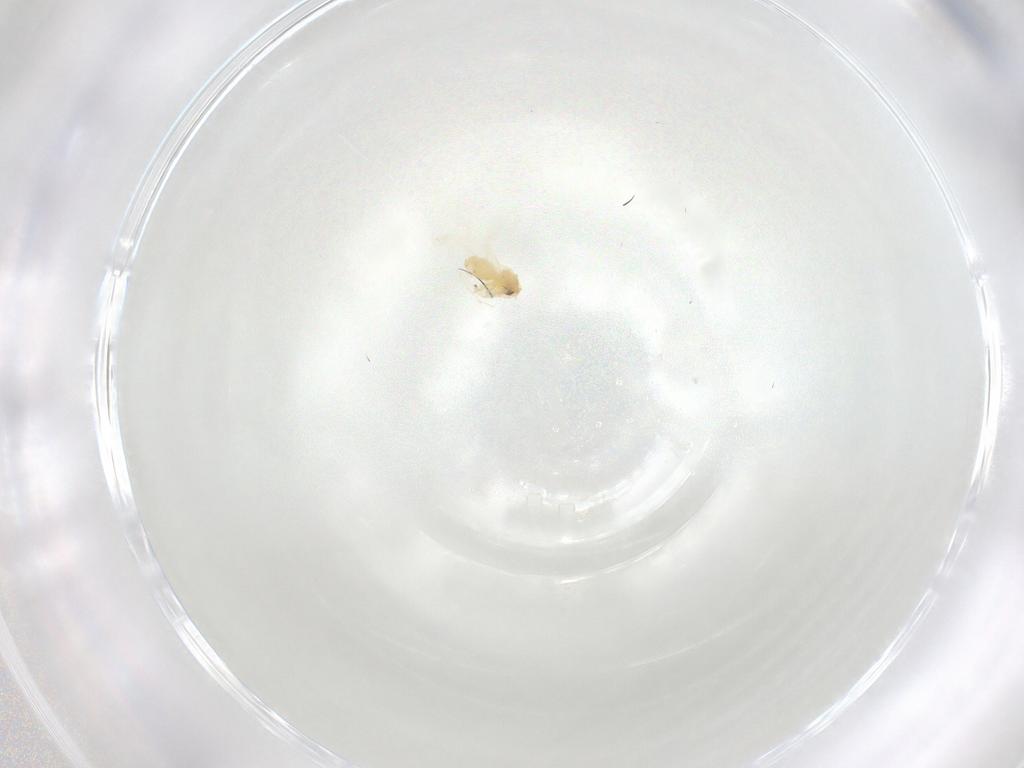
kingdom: Animalia
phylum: Arthropoda
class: Insecta
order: Hemiptera
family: Aleyrodidae
